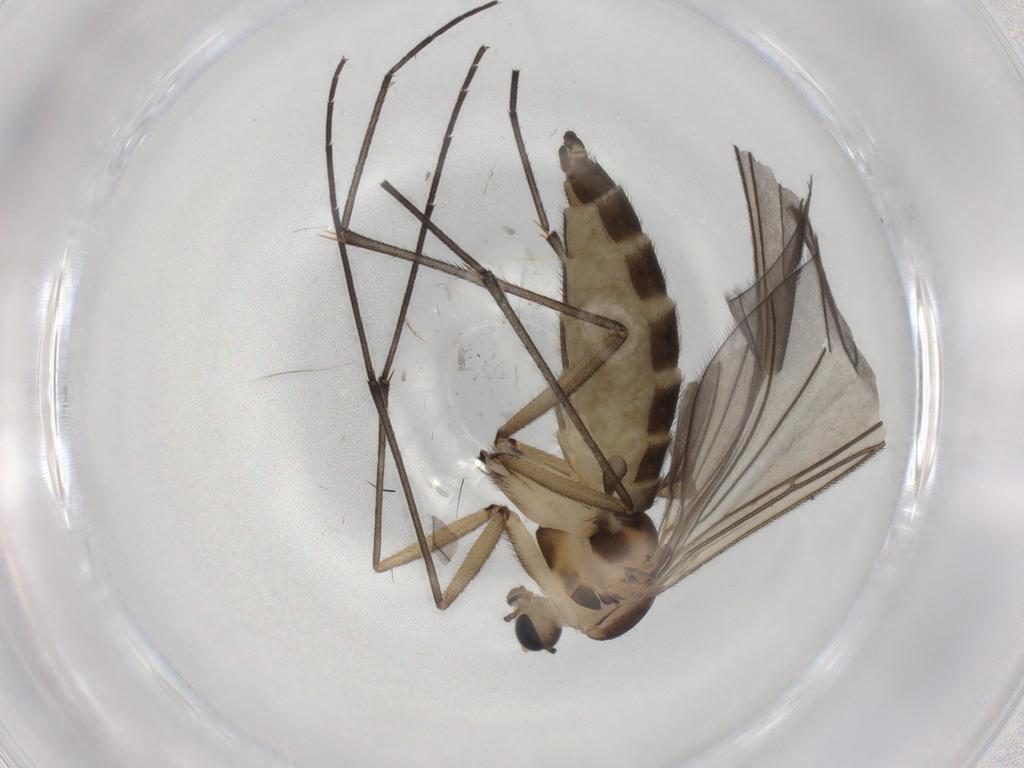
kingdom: Animalia
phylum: Arthropoda
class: Insecta
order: Diptera
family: Sciaridae
